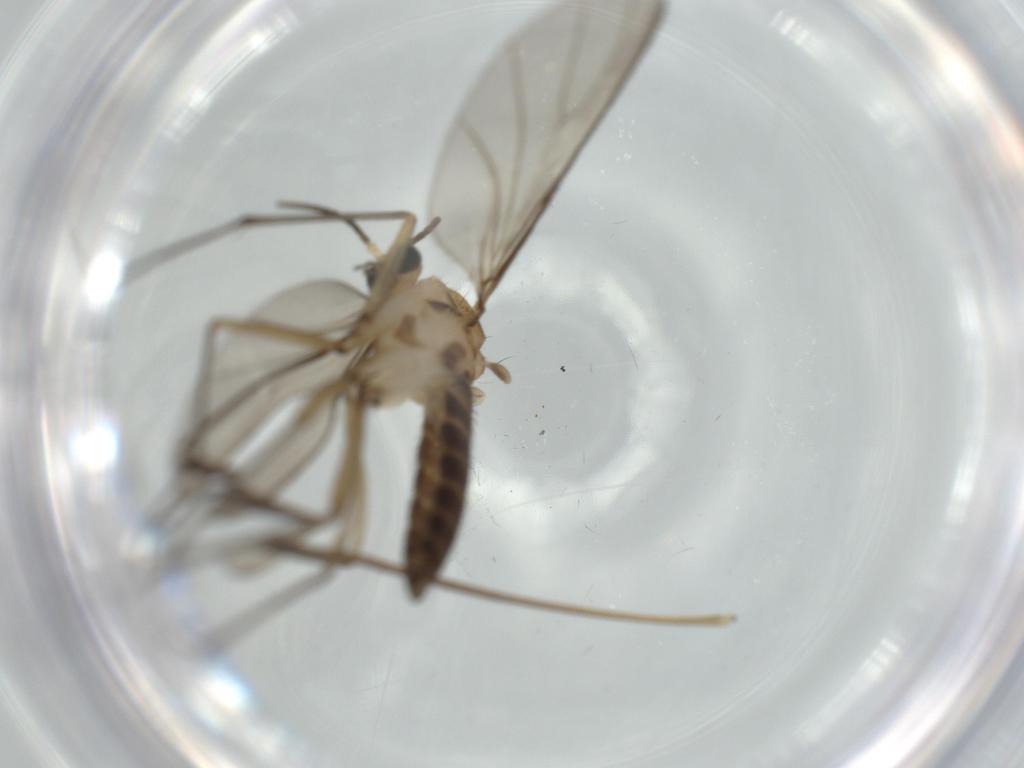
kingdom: Animalia
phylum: Arthropoda
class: Insecta
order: Diptera
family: Sciaridae
